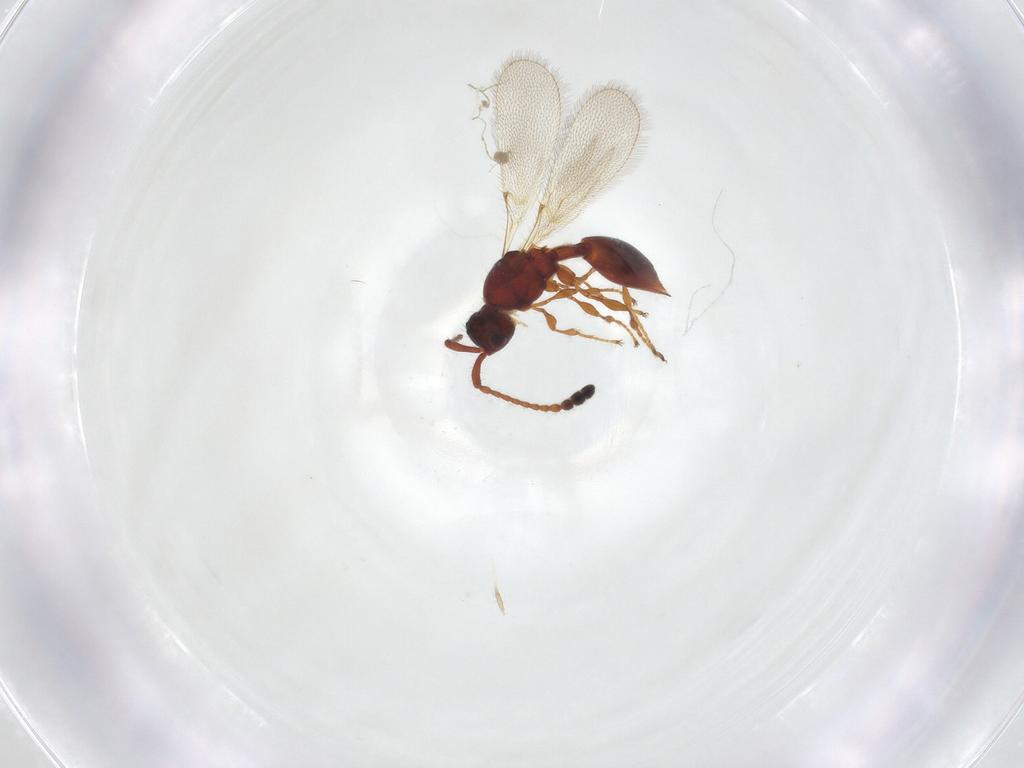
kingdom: Animalia
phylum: Arthropoda
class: Insecta
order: Hymenoptera
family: Diapriidae
